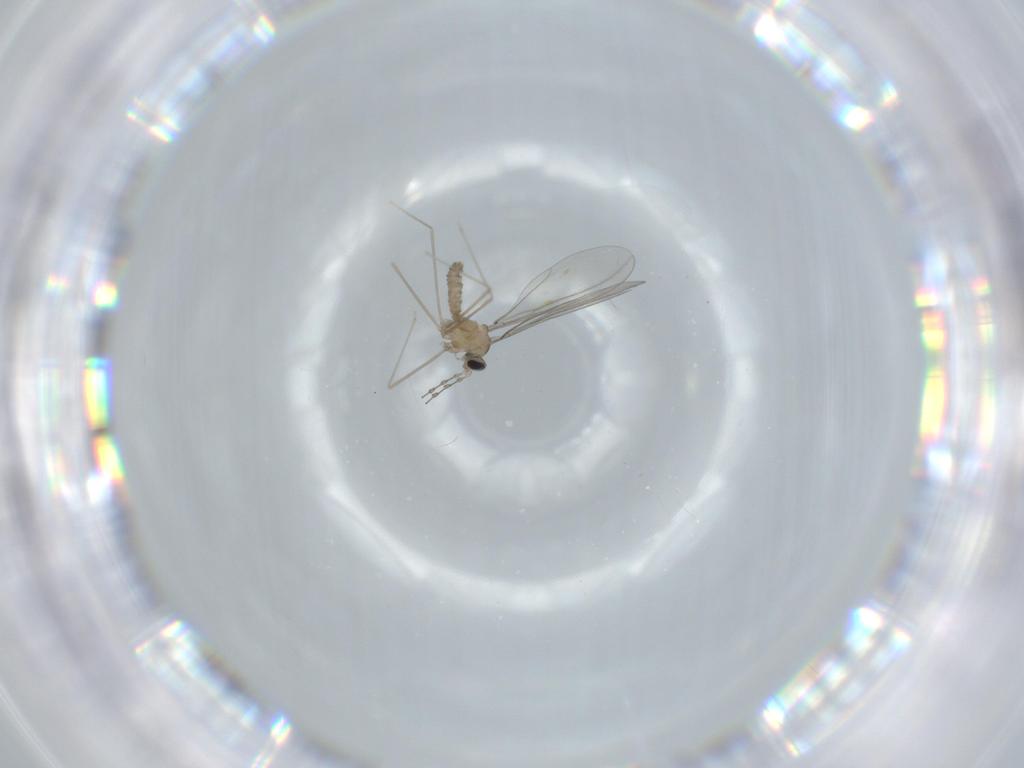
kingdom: Animalia
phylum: Arthropoda
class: Insecta
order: Diptera
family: Cecidomyiidae
